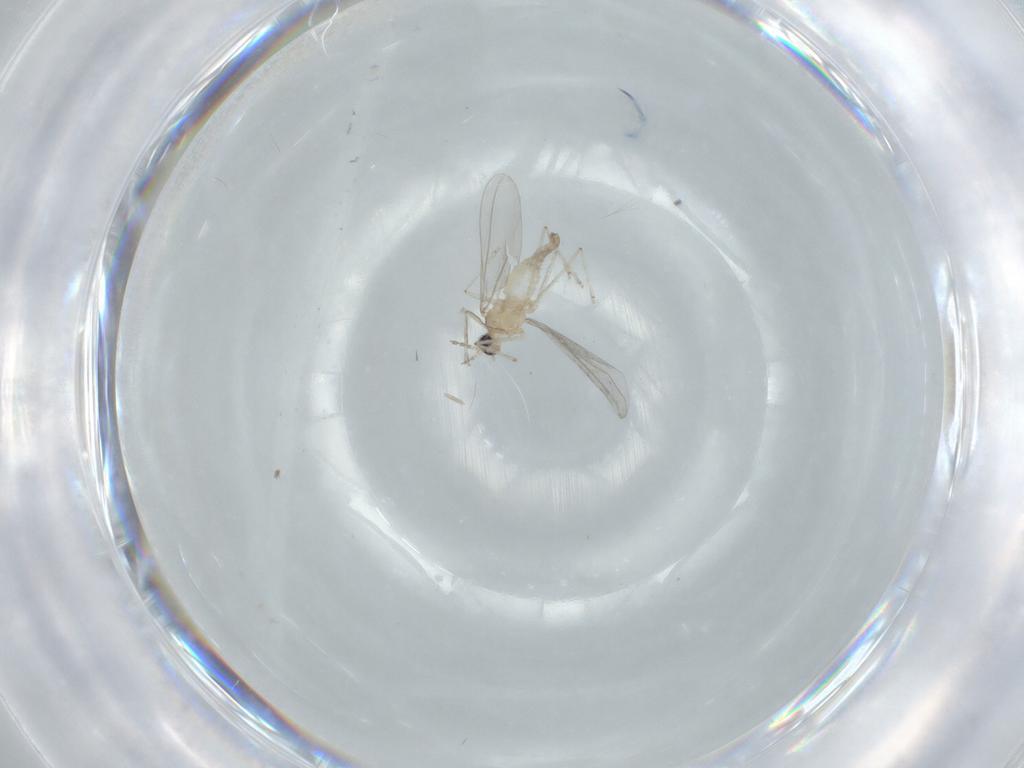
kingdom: Animalia
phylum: Arthropoda
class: Insecta
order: Diptera
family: Cecidomyiidae
